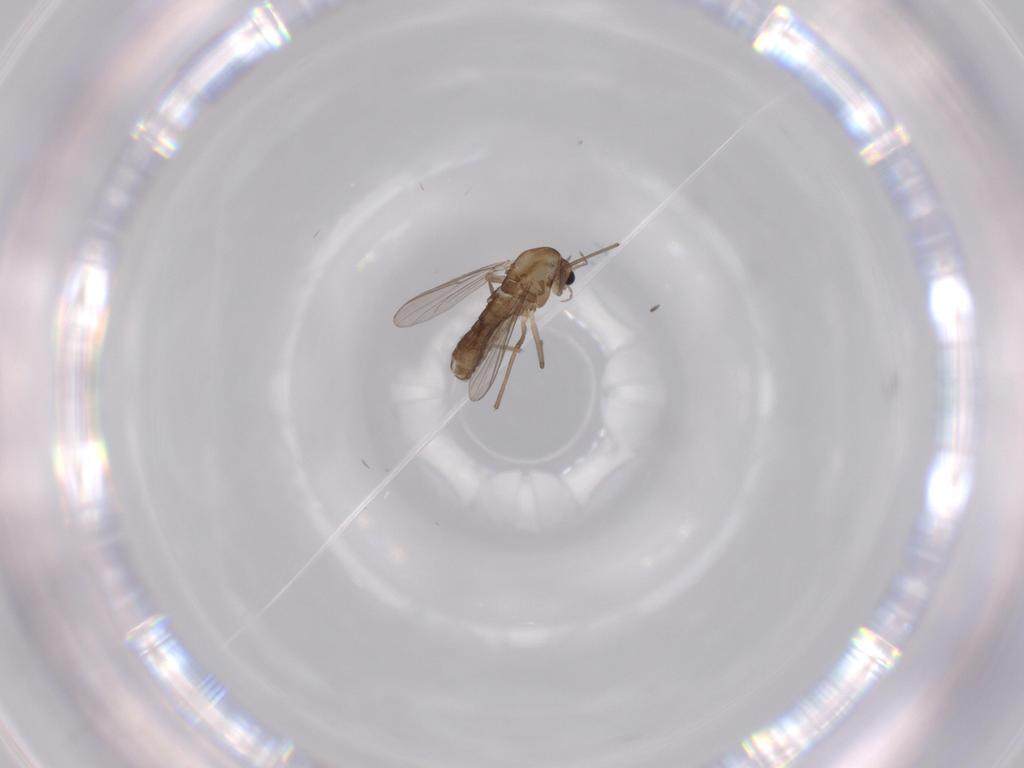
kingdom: Animalia
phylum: Arthropoda
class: Insecta
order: Diptera
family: Chironomidae
